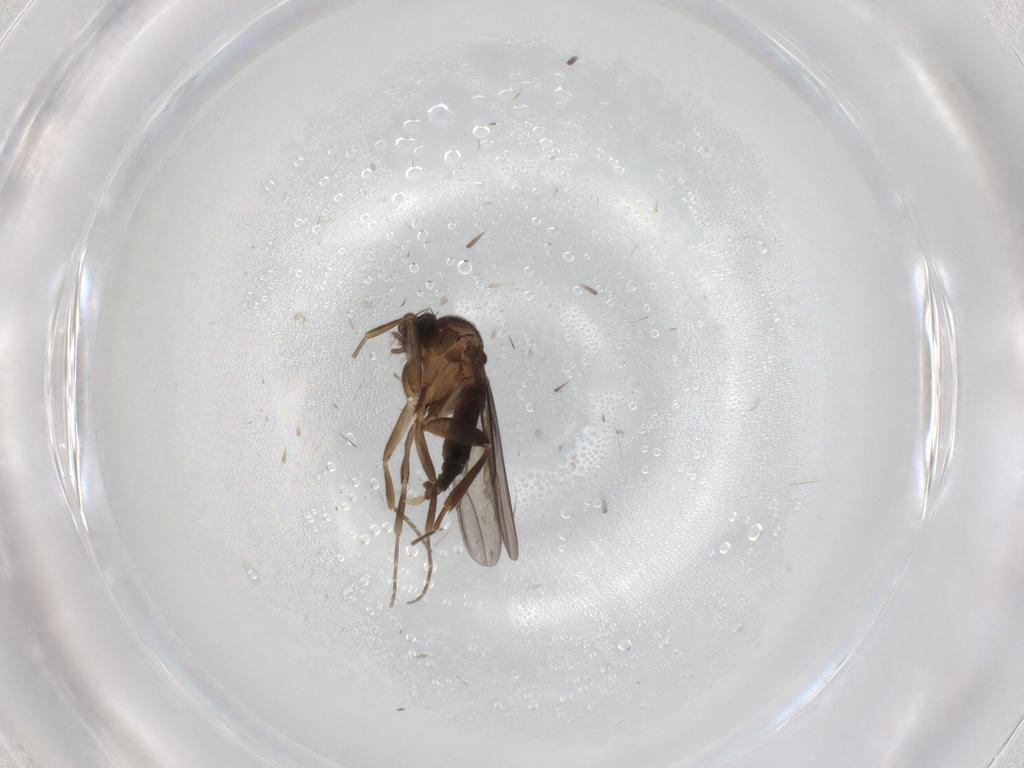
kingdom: Animalia
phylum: Arthropoda
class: Insecta
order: Diptera
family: Phoridae
